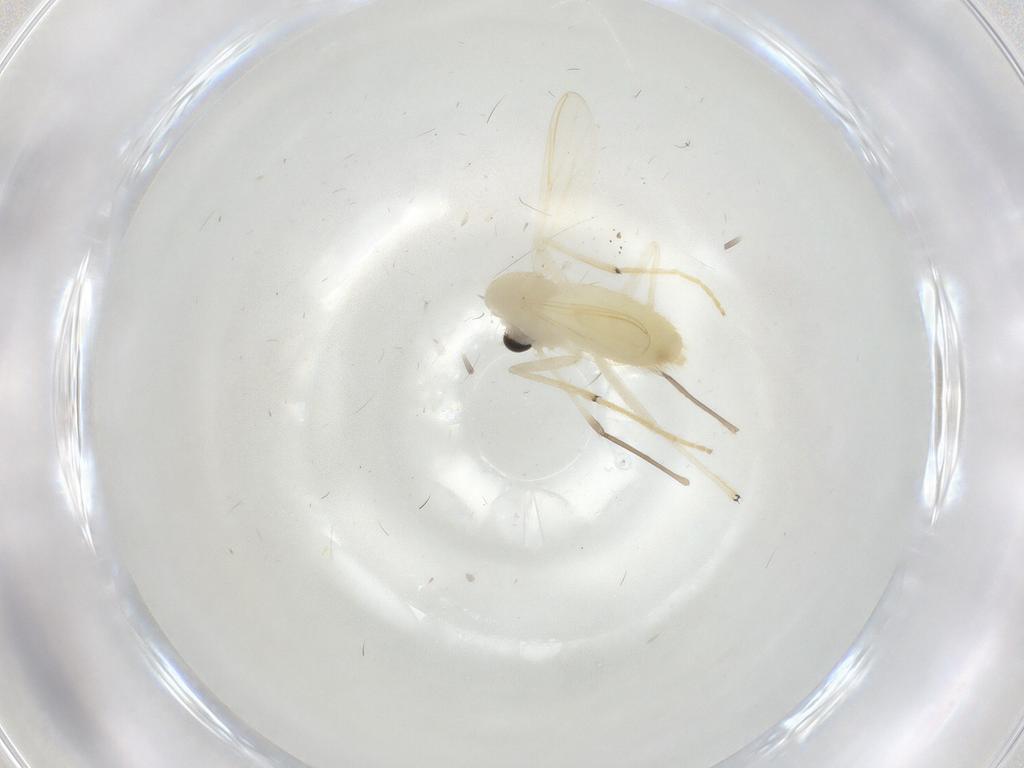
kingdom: Animalia
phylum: Arthropoda
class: Insecta
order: Diptera
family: Chironomidae
